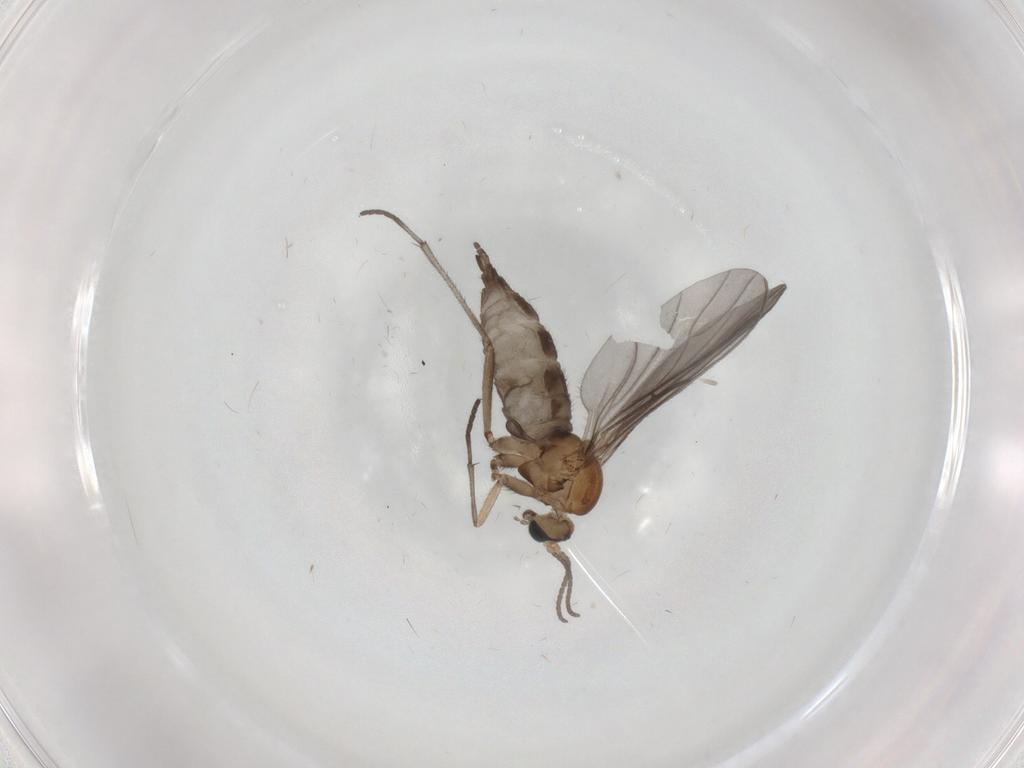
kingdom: Animalia
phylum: Arthropoda
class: Insecta
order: Diptera
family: Sciaridae
